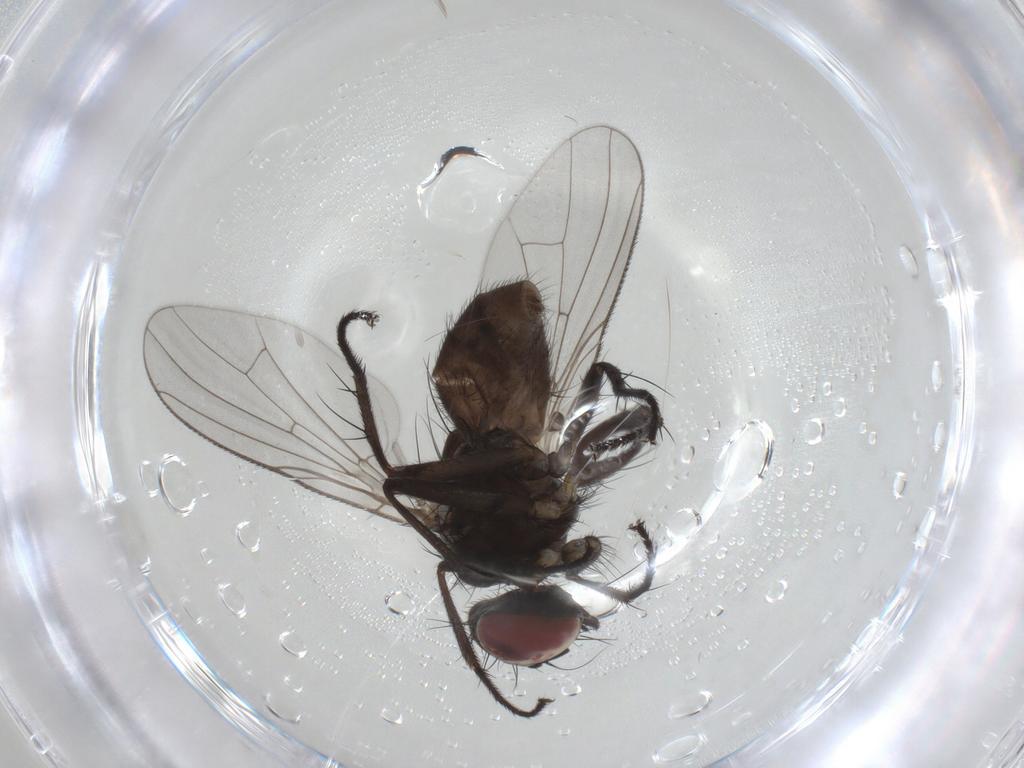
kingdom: Animalia
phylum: Arthropoda
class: Insecta
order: Diptera
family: Muscidae
